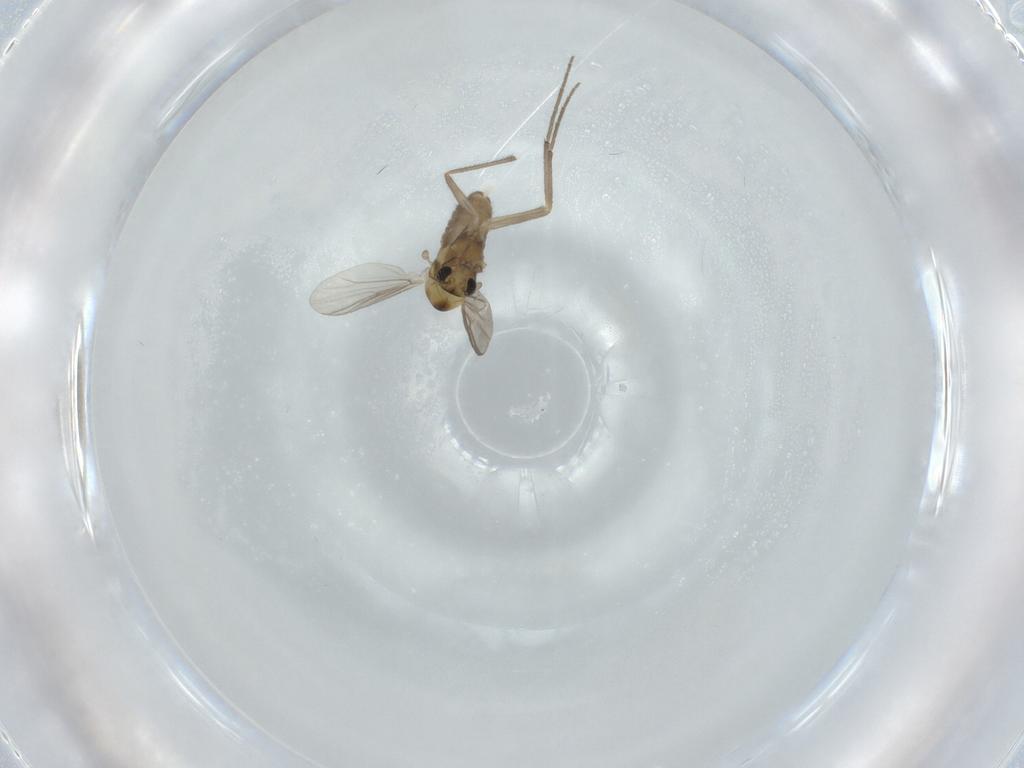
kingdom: Animalia
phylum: Arthropoda
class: Insecta
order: Diptera
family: Chironomidae
